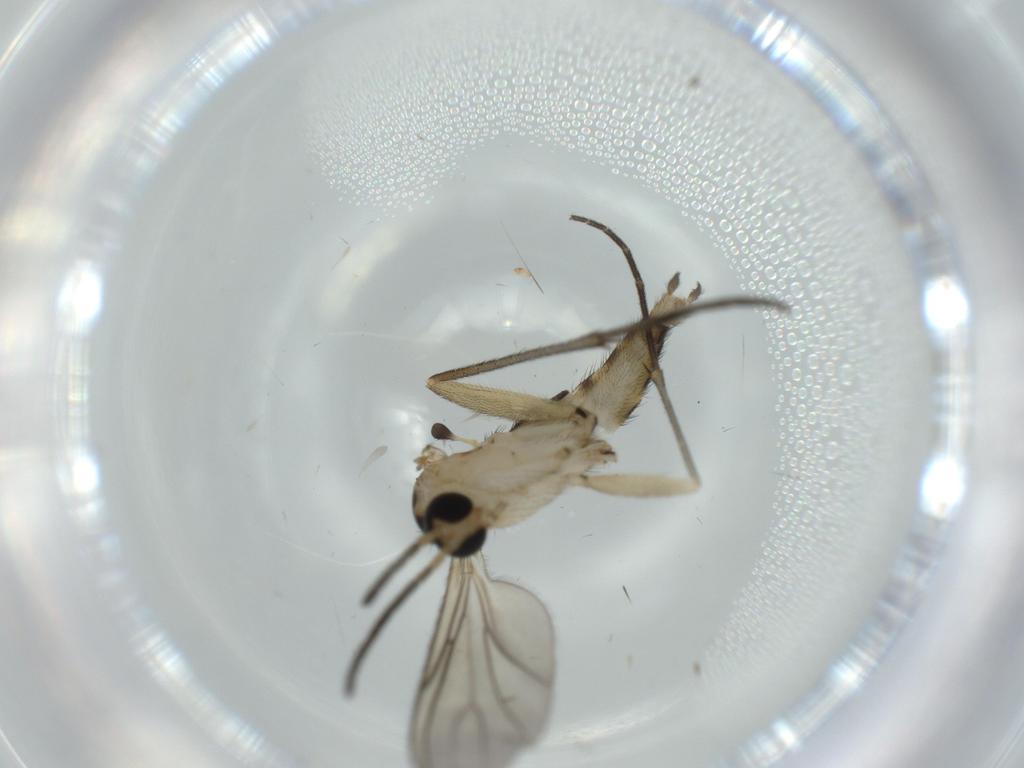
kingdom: Animalia
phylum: Arthropoda
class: Insecta
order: Diptera
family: Sciaridae
